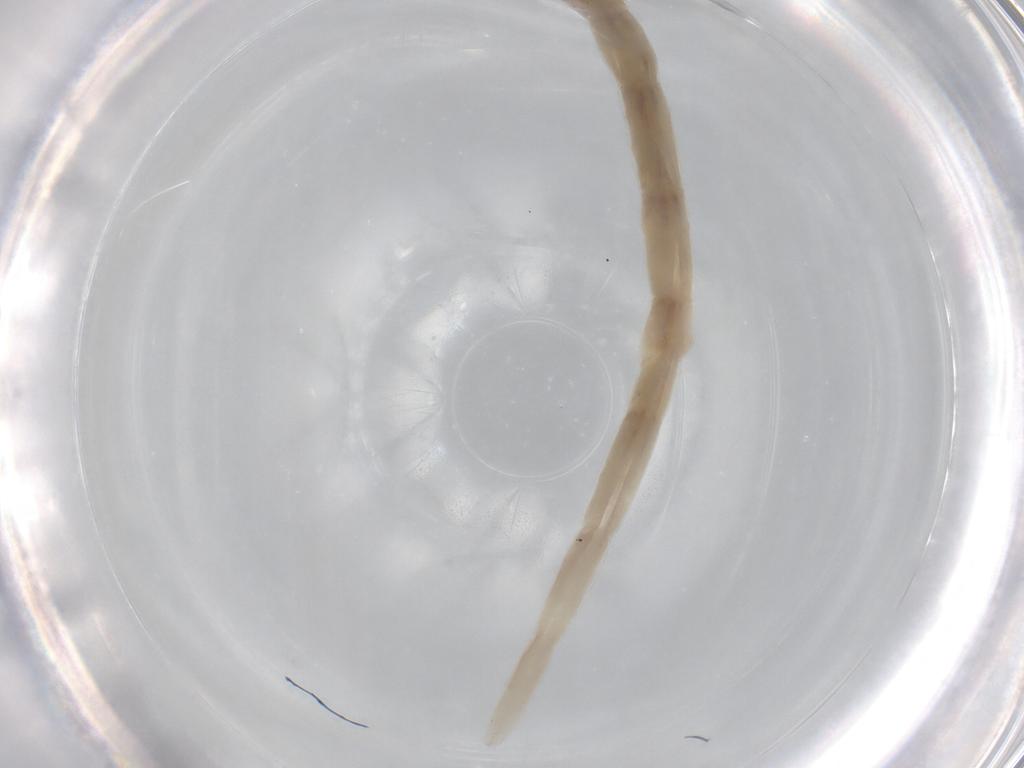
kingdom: Animalia
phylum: Arthropoda
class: Insecta
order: Diptera
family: Ceratopogonidae
